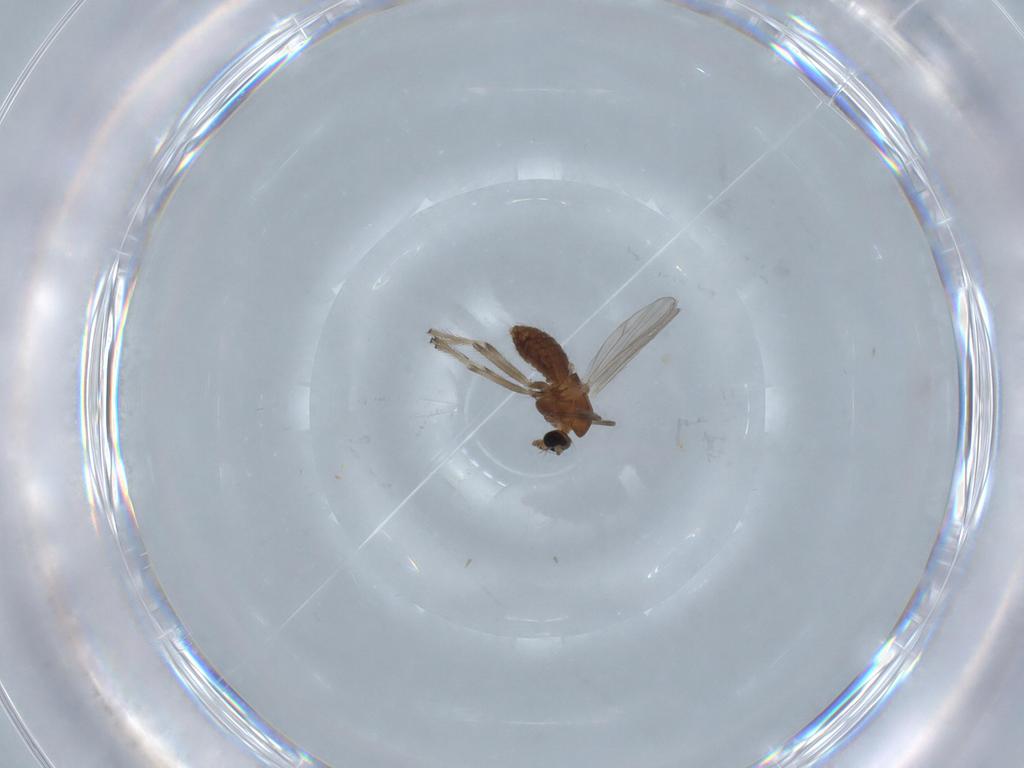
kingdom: Animalia
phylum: Arthropoda
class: Insecta
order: Diptera
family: Chironomidae
